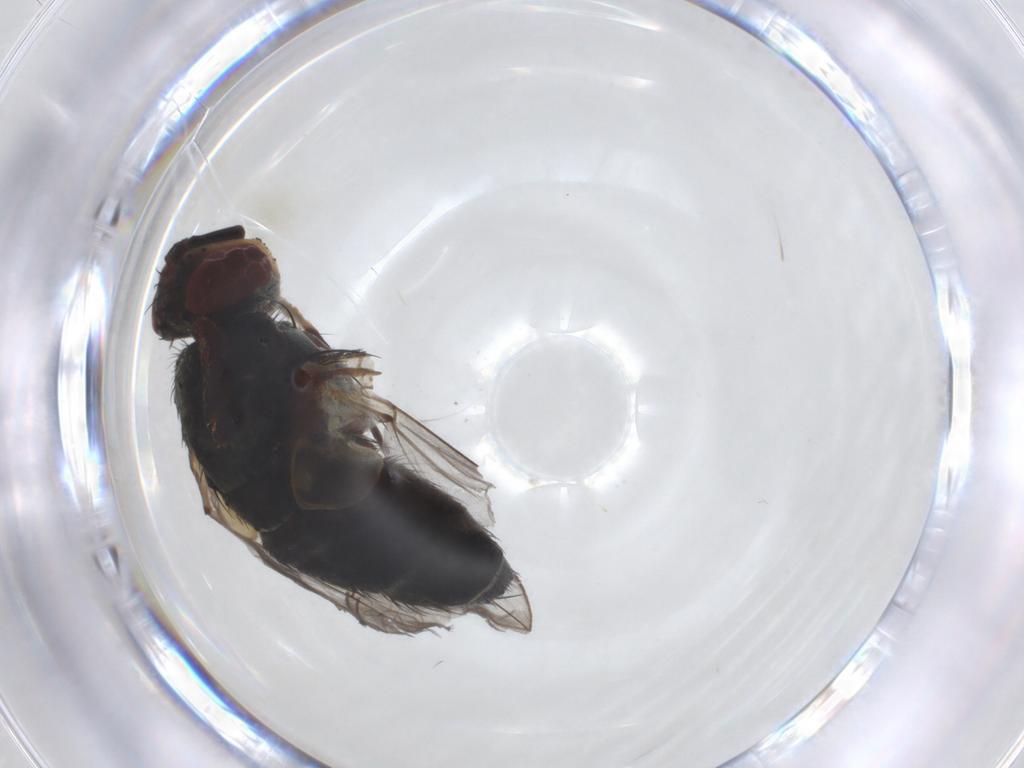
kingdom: Animalia
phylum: Arthropoda
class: Insecta
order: Diptera
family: Tachinidae
